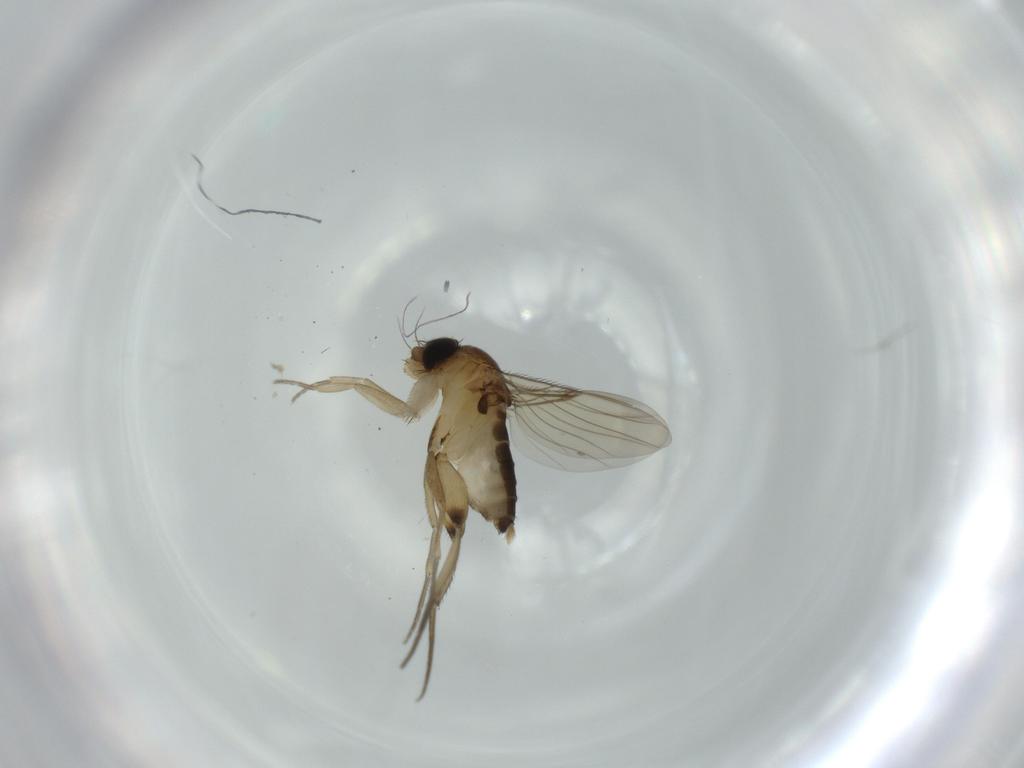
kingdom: Animalia
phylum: Arthropoda
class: Insecta
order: Diptera
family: Phoridae
